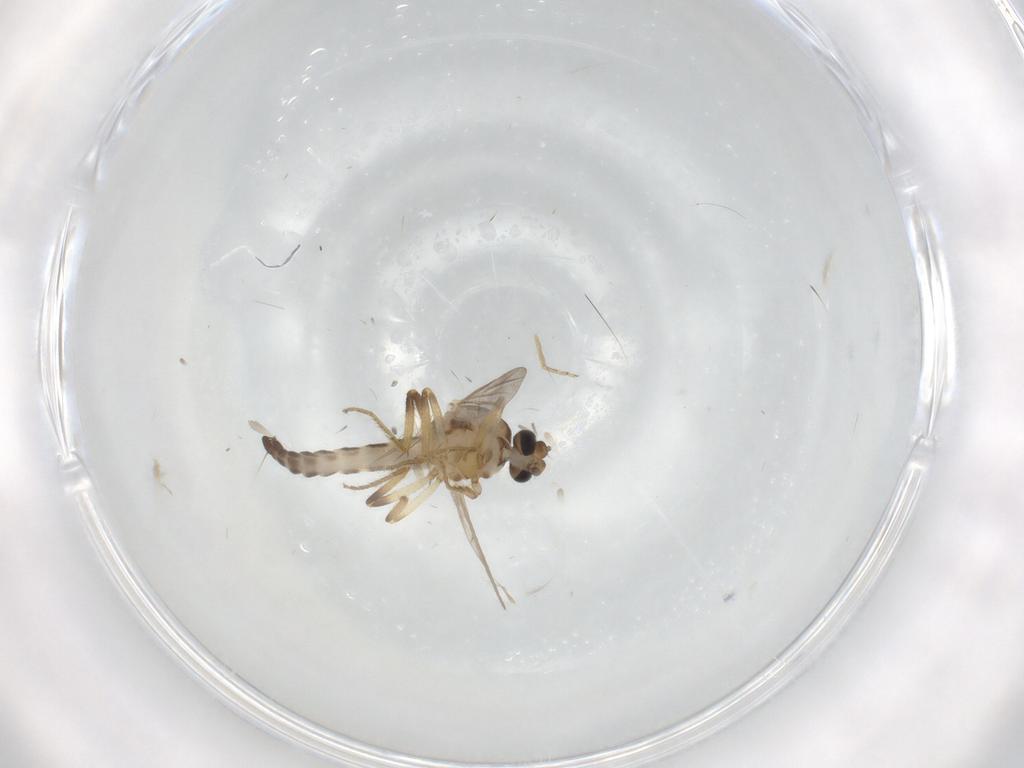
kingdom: Animalia
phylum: Arthropoda
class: Insecta
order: Diptera
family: Ceratopogonidae
